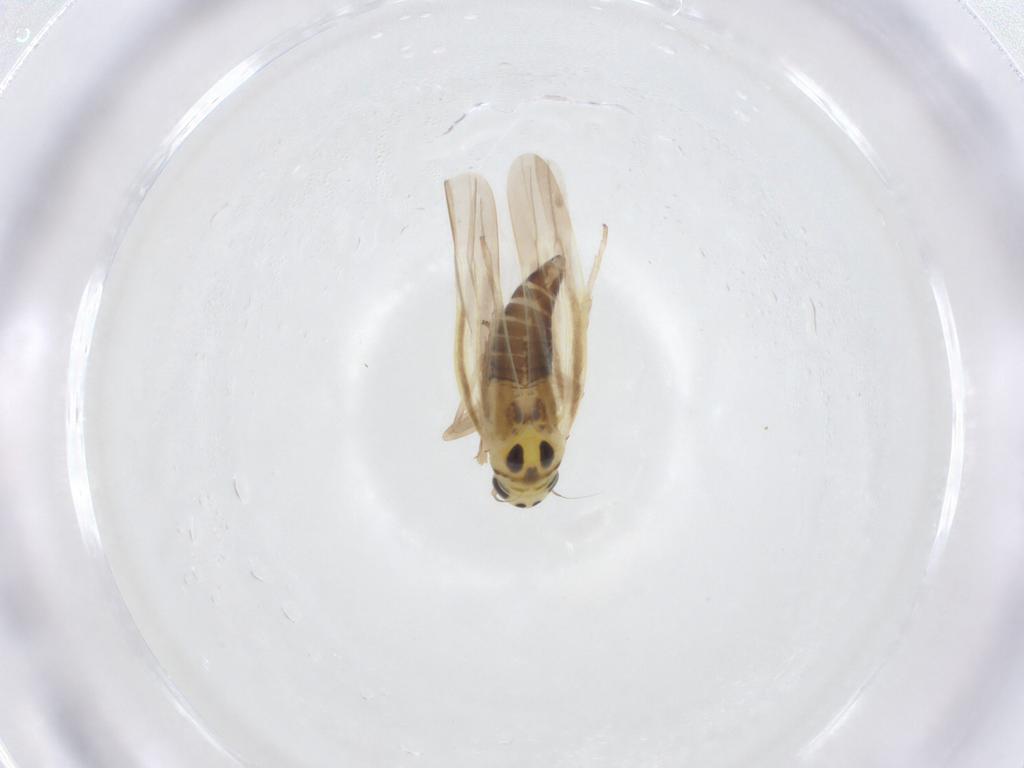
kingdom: Animalia
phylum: Arthropoda
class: Insecta
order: Hemiptera
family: Cicadellidae
